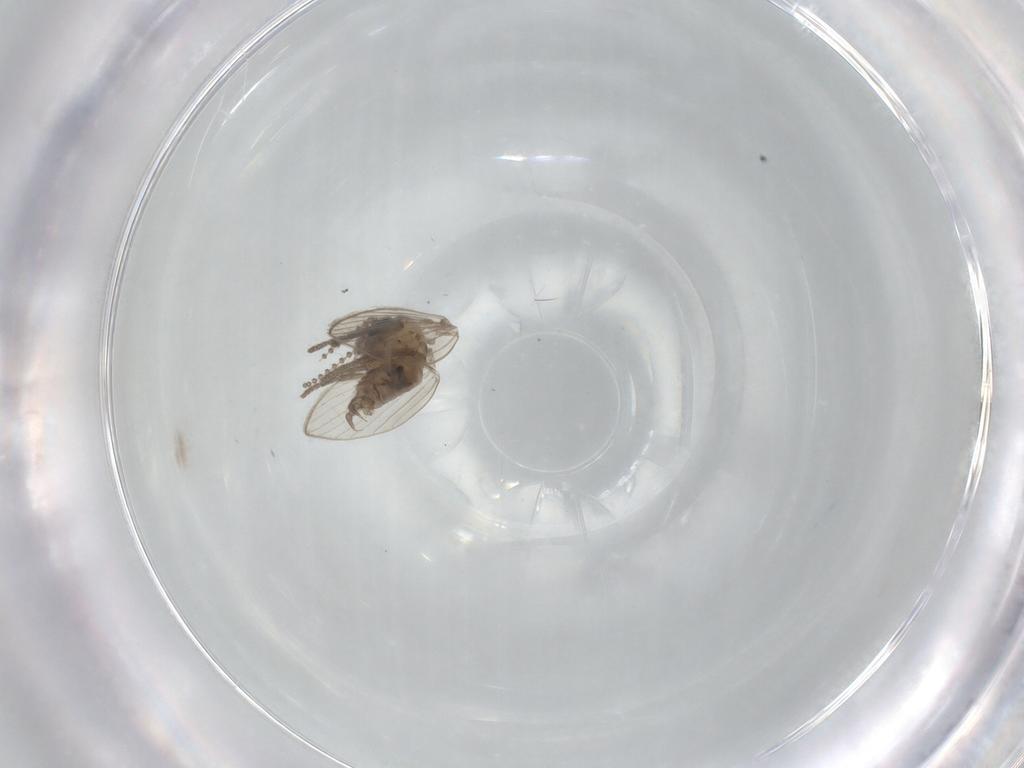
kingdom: Animalia
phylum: Arthropoda
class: Insecta
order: Diptera
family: Psychodidae
